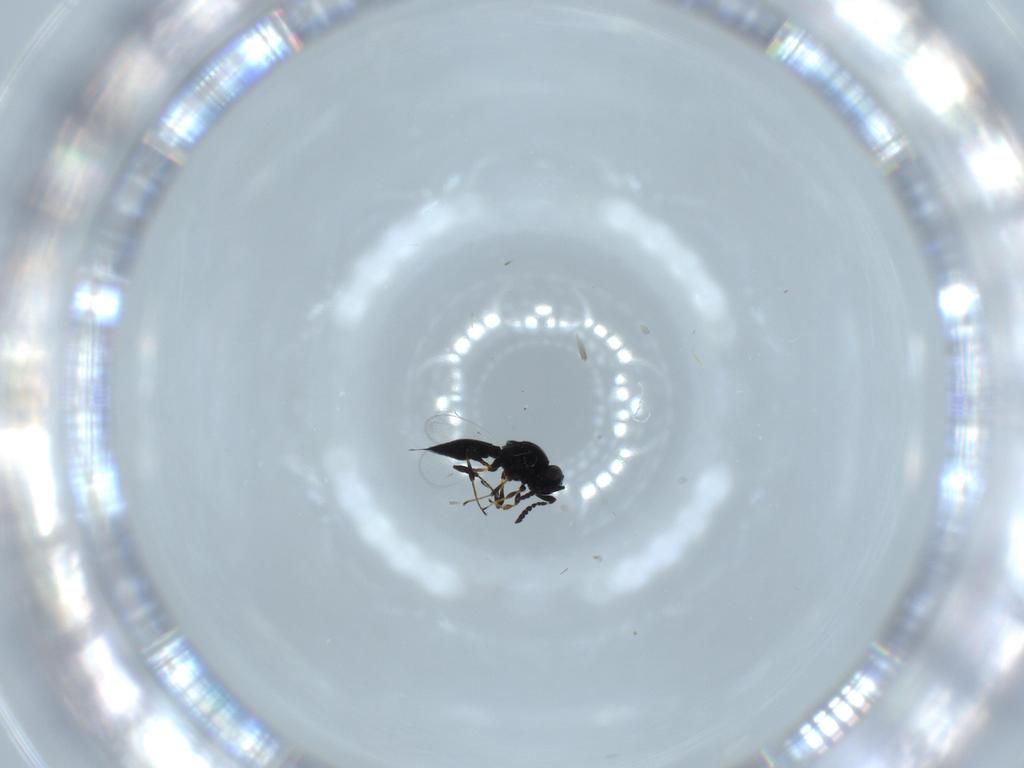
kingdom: Animalia
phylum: Arthropoda
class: Insecta
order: Hymenoptera
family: Platygastridae
